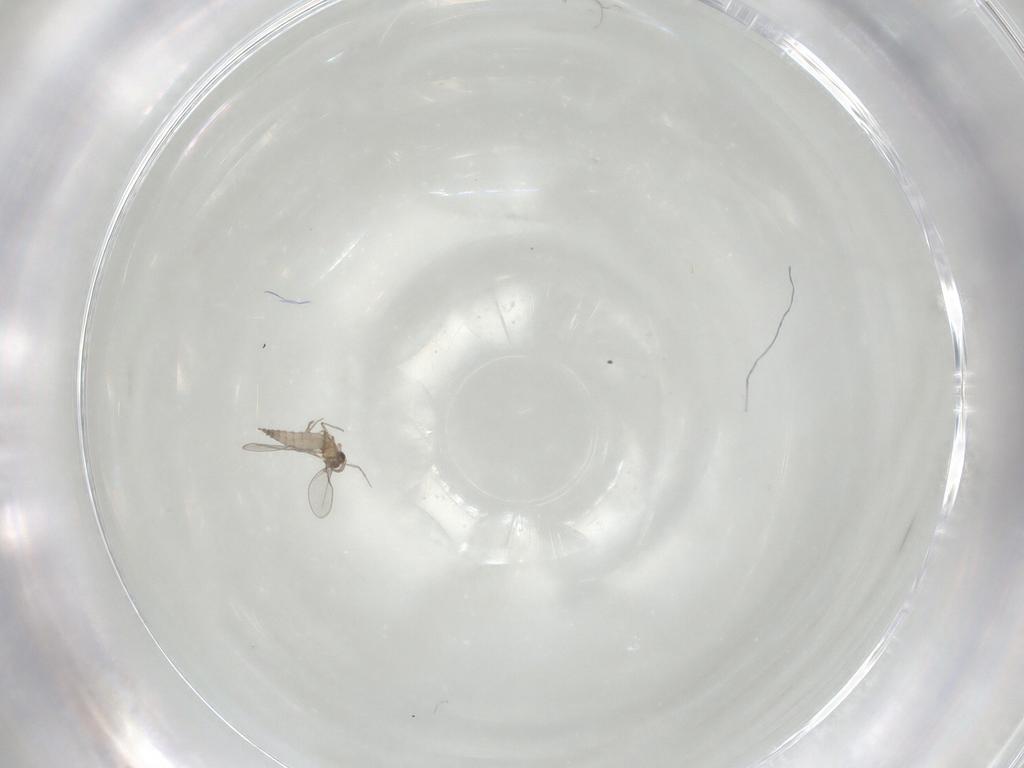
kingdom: Animalia
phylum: Arthropoda
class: Insecta
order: Diptera
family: Cecidomyiidae
